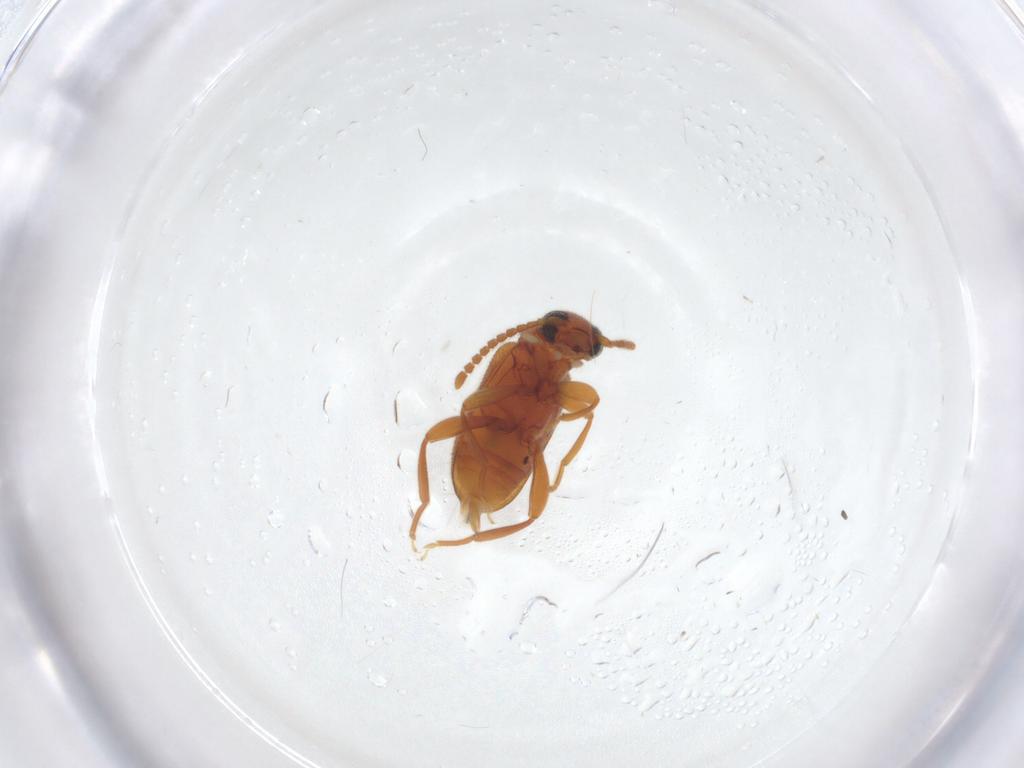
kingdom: Animalia
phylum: Arthropoda
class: Insecta
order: Coleoptera
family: Aderidae
